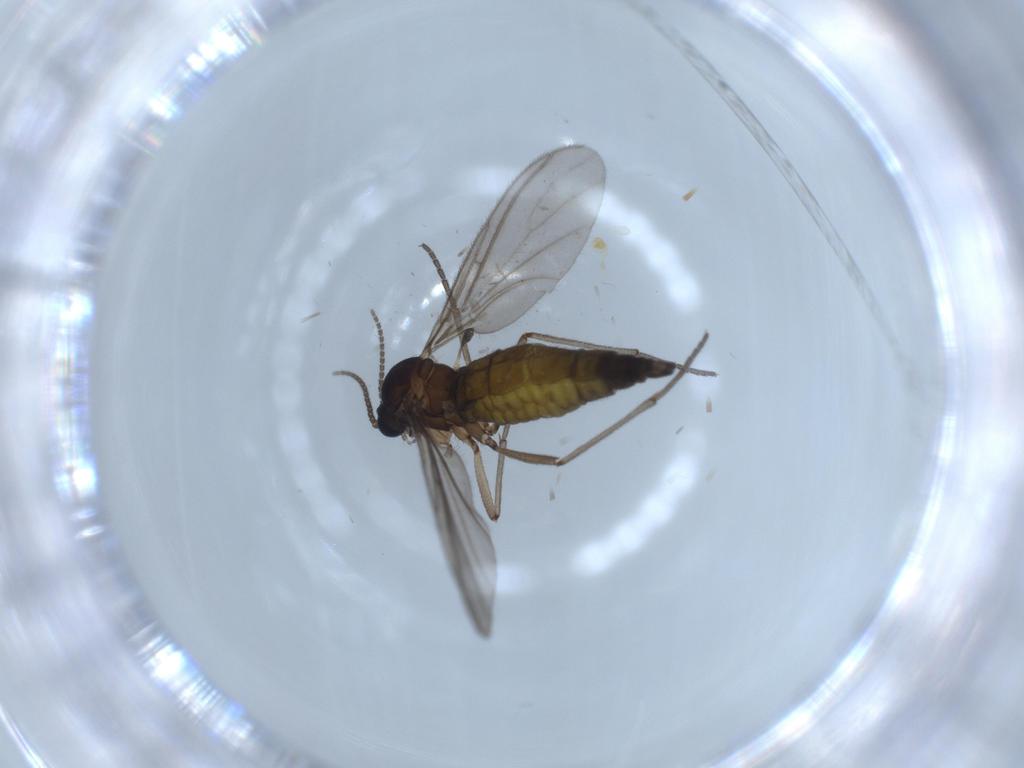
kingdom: Animalia
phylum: Arthropoda
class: Insecta
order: Diptera
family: Sciaridae
